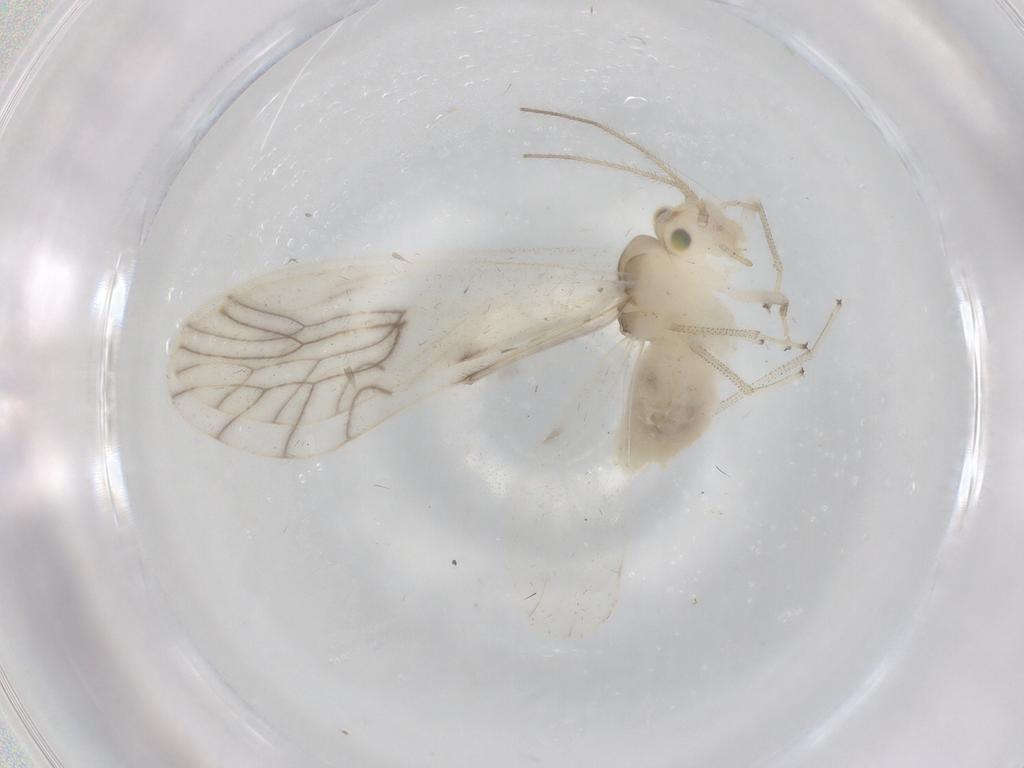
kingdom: Animalia
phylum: Arthropoda
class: Insecta
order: Psocodea
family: Caeciliusidae
